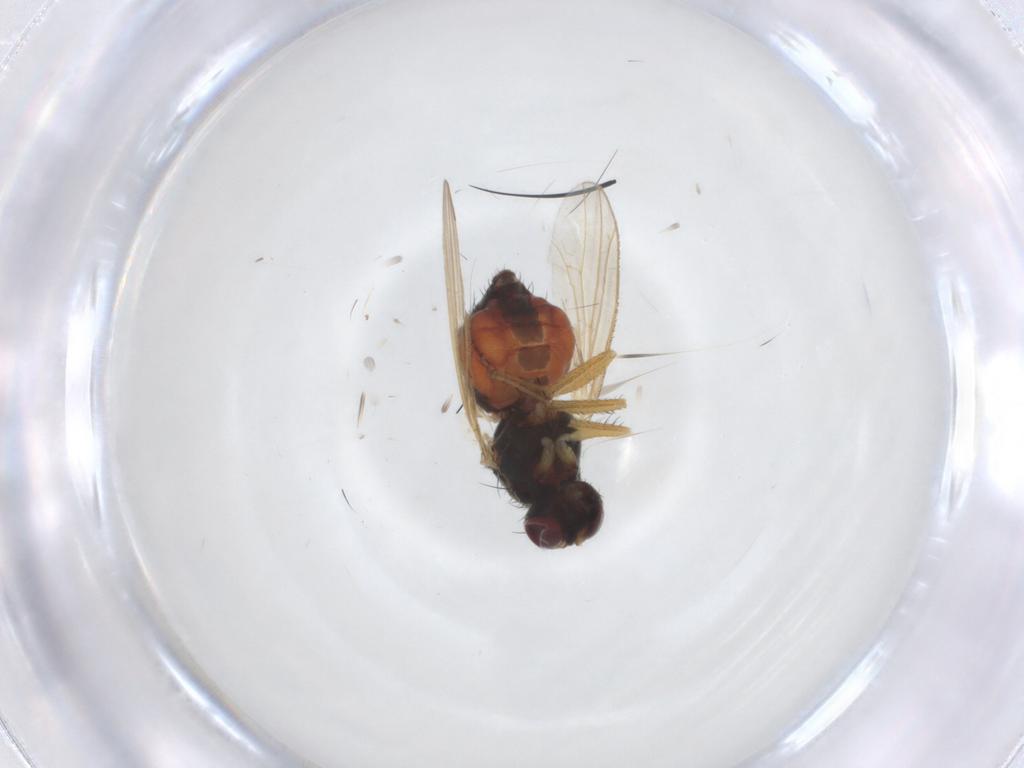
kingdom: Animalia
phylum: Arthropoda
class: Insecta
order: Diptera
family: Heleomyzidae
